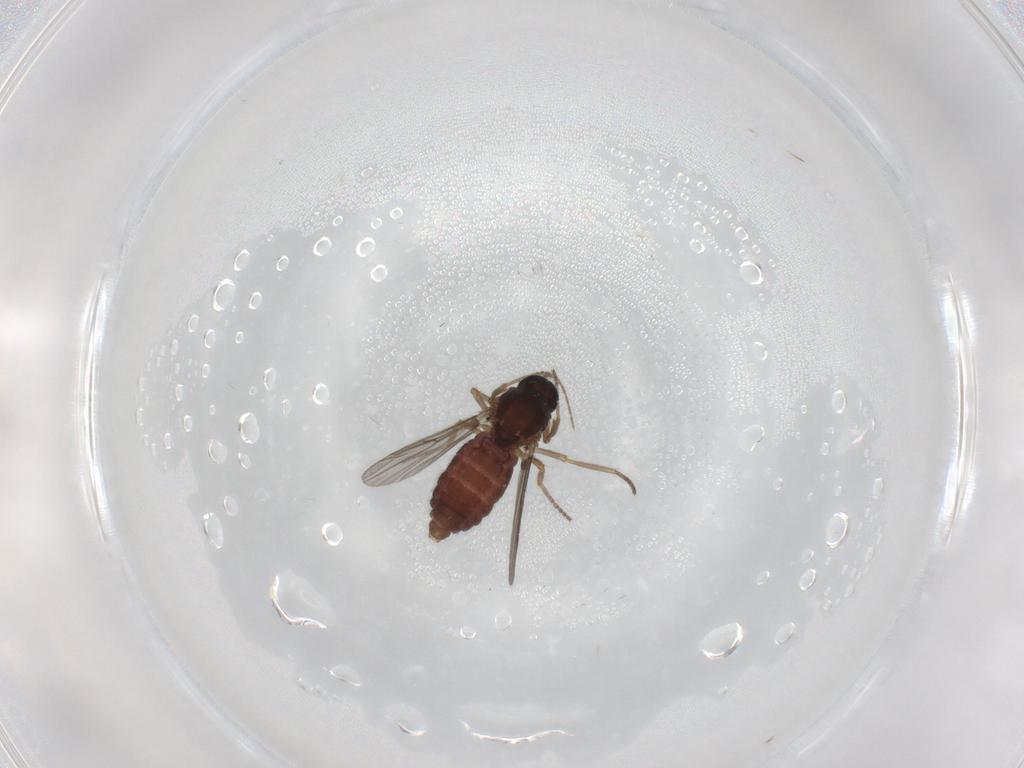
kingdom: Animalia
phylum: Arthropoda
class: Insecta
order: Diptera
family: Ceratopogonidae
